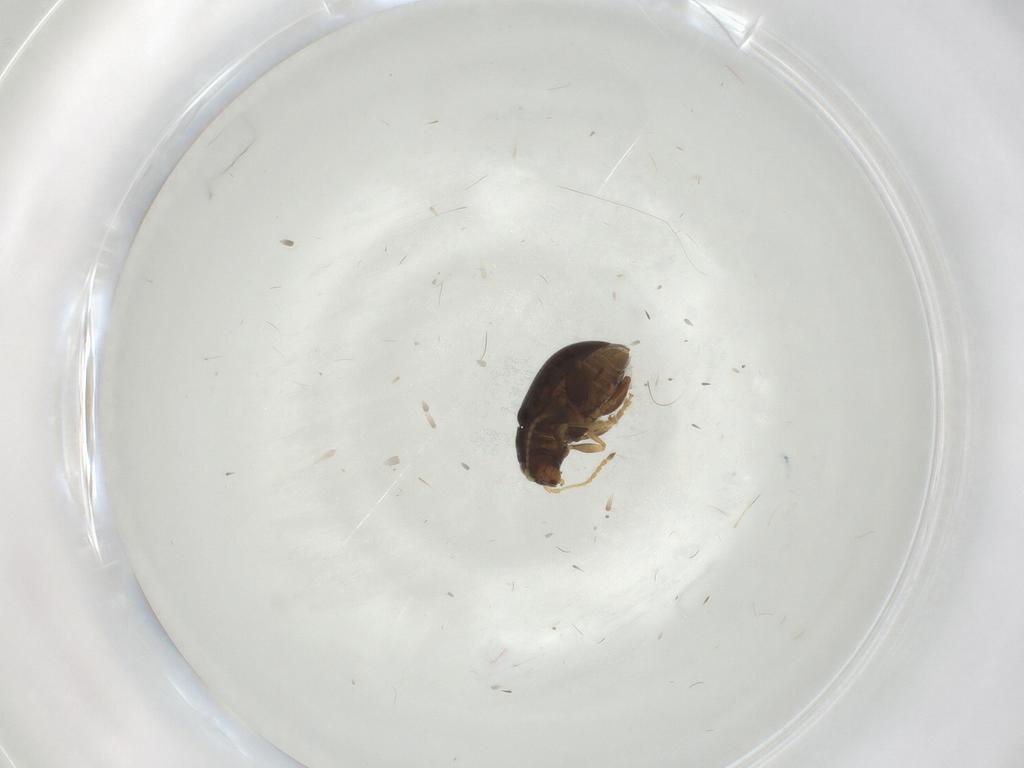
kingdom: Animalia
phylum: Arthropoda
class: Insecta
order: Coleoptera
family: Chrysomelidae
